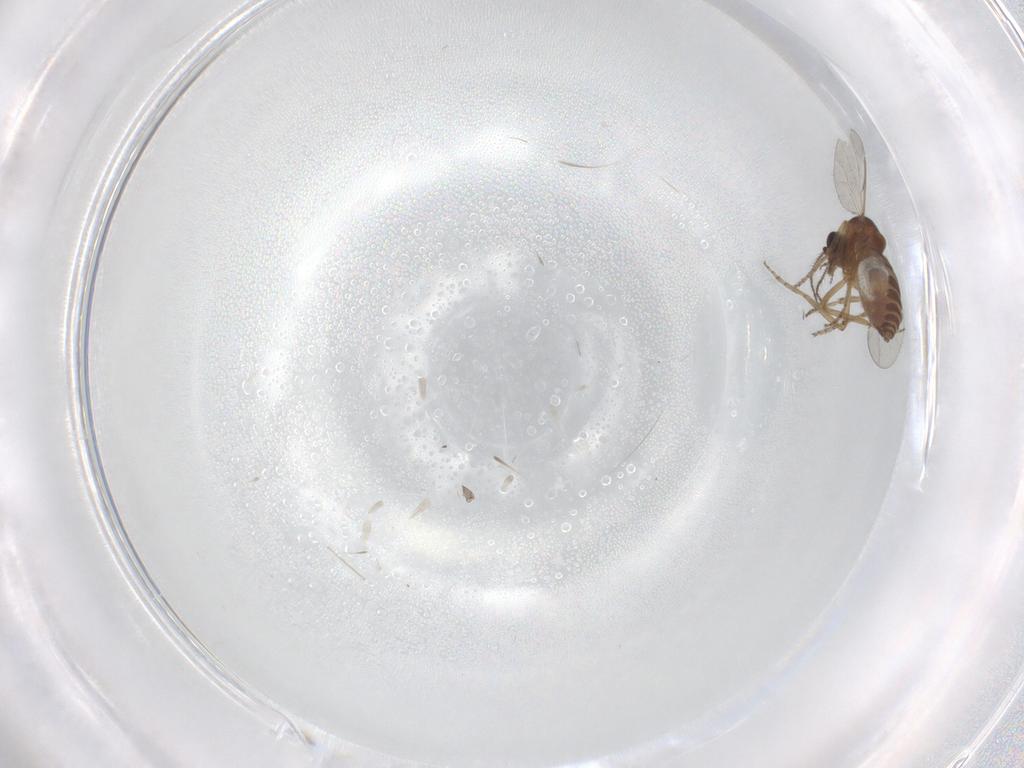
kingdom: Animalia
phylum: Arthropoda
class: Insecta
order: Diptera
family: Ceratopogonidae
